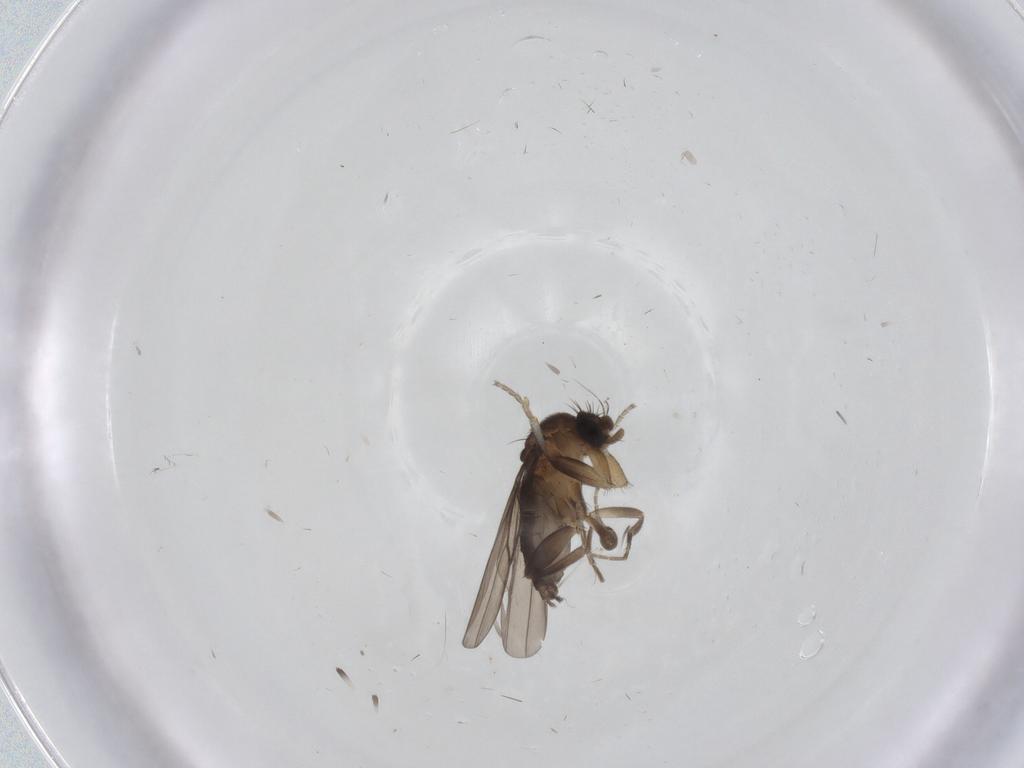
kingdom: Animalia
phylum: Arthropoda
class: Insecta
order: Diptera
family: Phoridae
